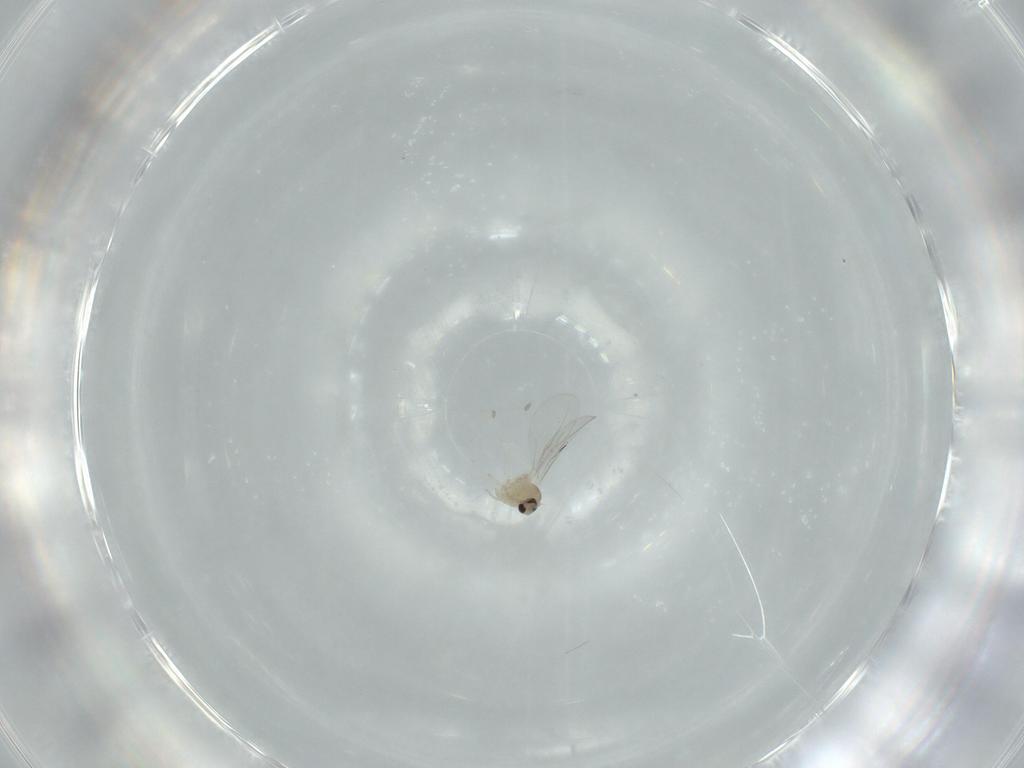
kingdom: Animalia
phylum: Arthropoda
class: Insecta
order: Diptera
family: Cecidomyiidae
